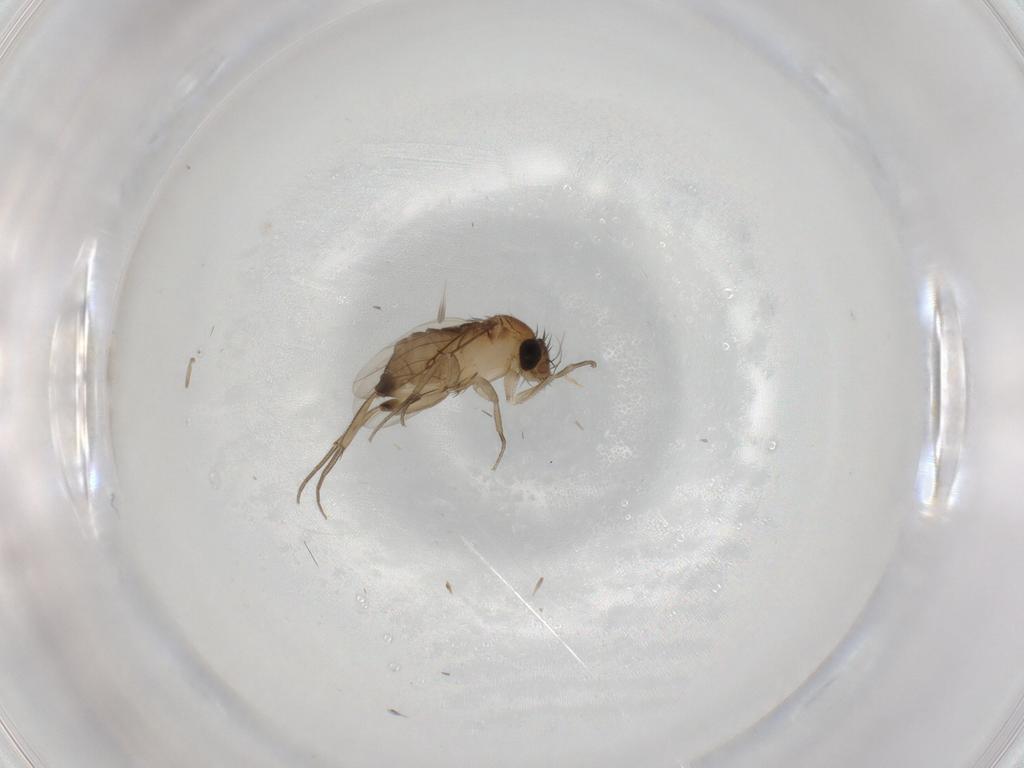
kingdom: Animalia
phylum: Arthropoda
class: Insecta
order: Diptera
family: Phoridae
